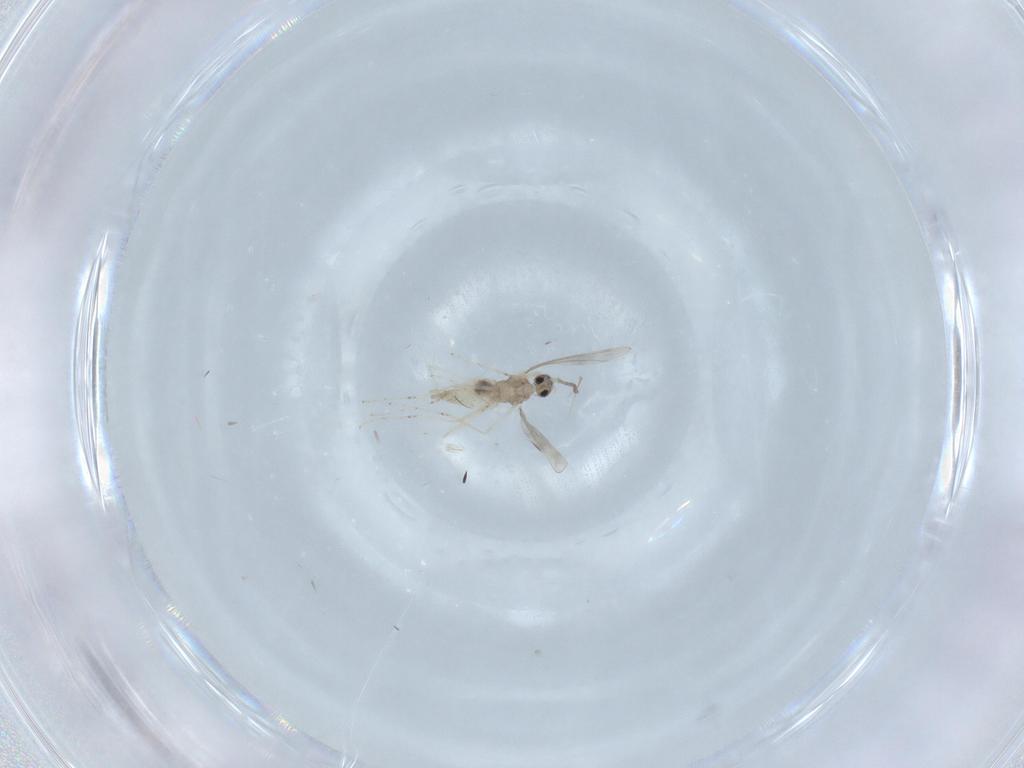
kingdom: Animalia
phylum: Arthropoda
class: Insecta
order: Diptera
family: Cecidomyiidae
